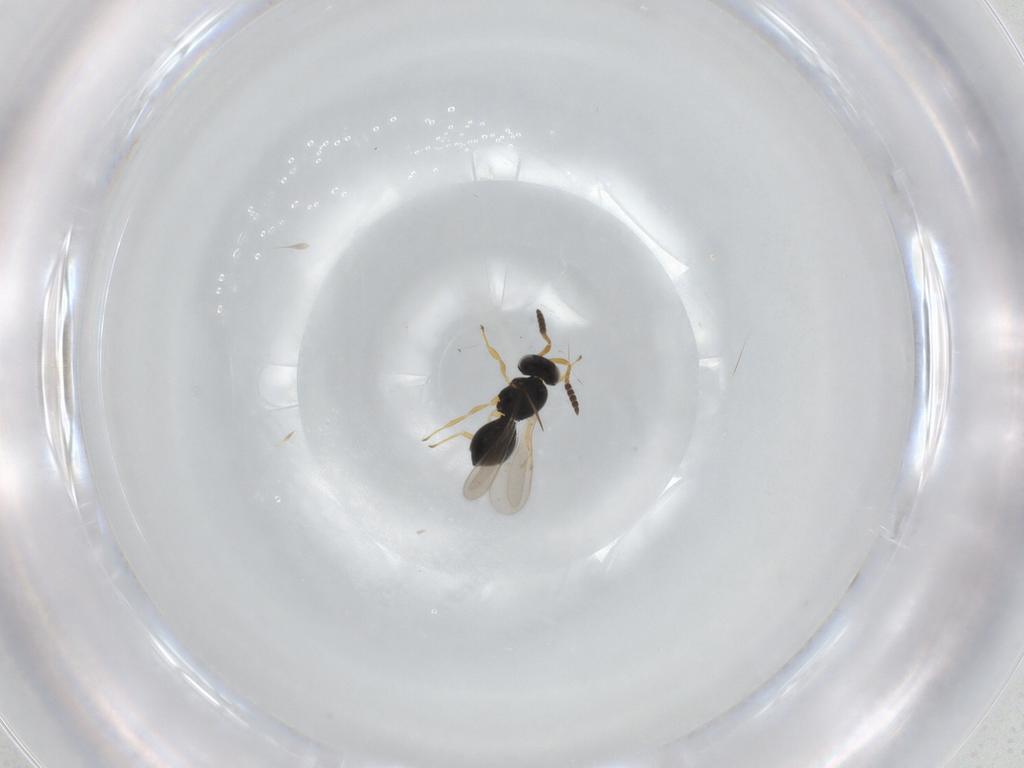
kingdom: Animalia
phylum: Arthropoda
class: Insecta
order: Hymenoptera
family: Scelionidae
